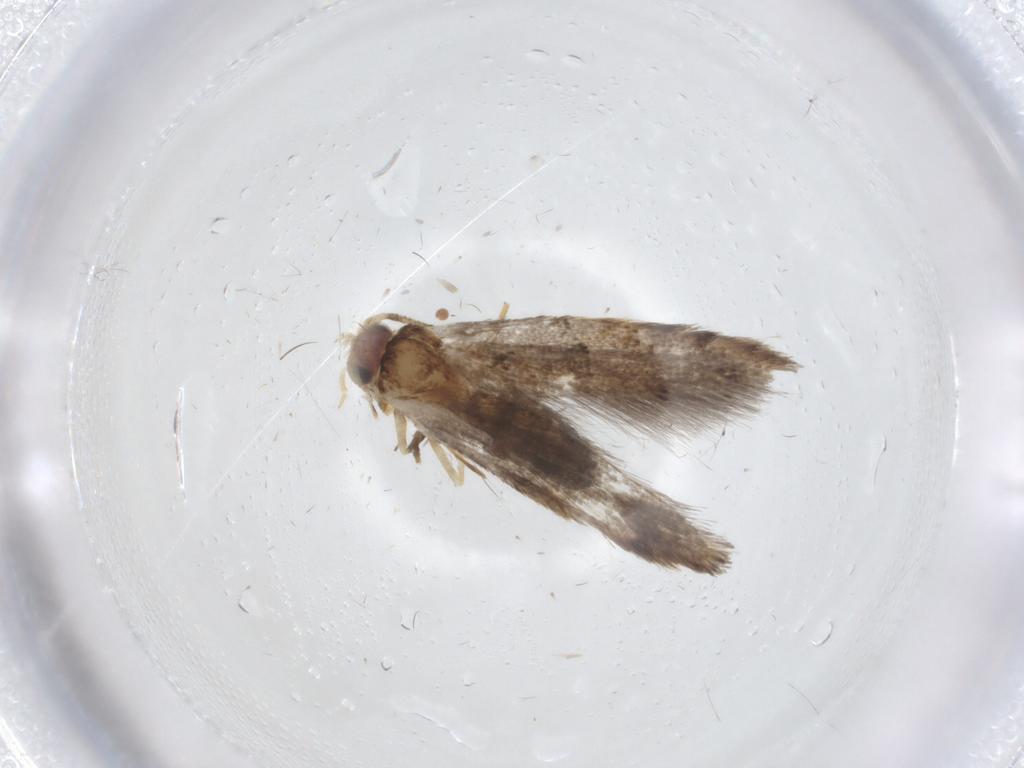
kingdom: Animalia
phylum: Arthropoda
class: Insecta
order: Lepidoptera
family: Tineidae
